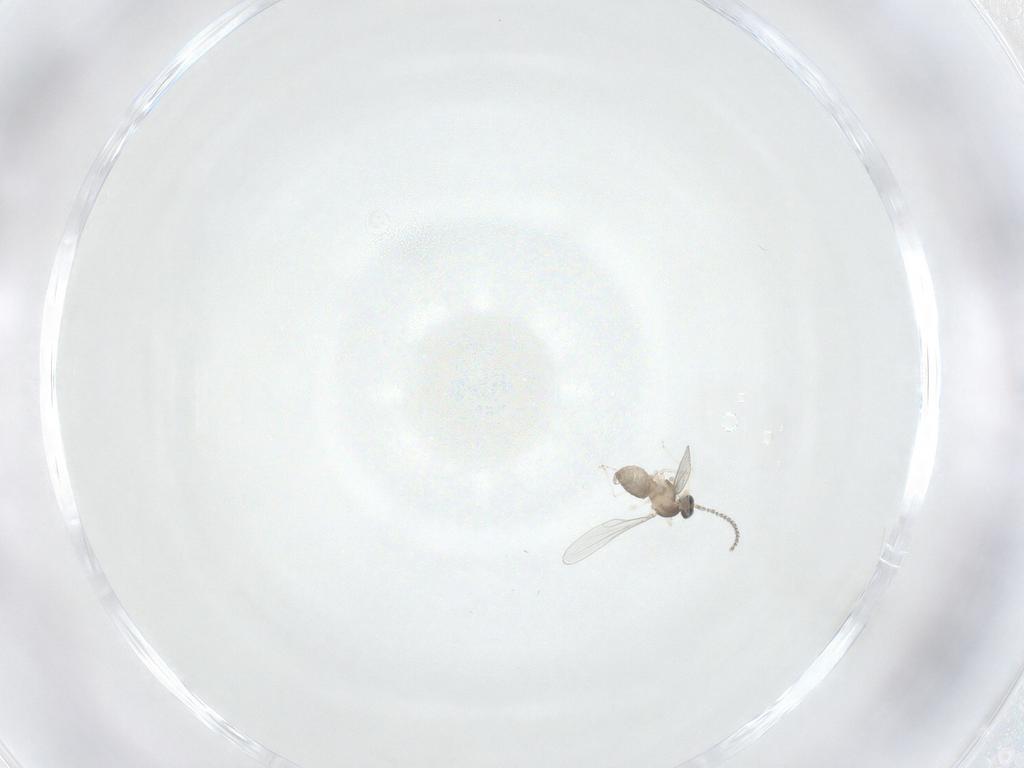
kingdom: Animalia
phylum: Arthropoda
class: Insecta
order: Diptera
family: Cecidomyiidae
